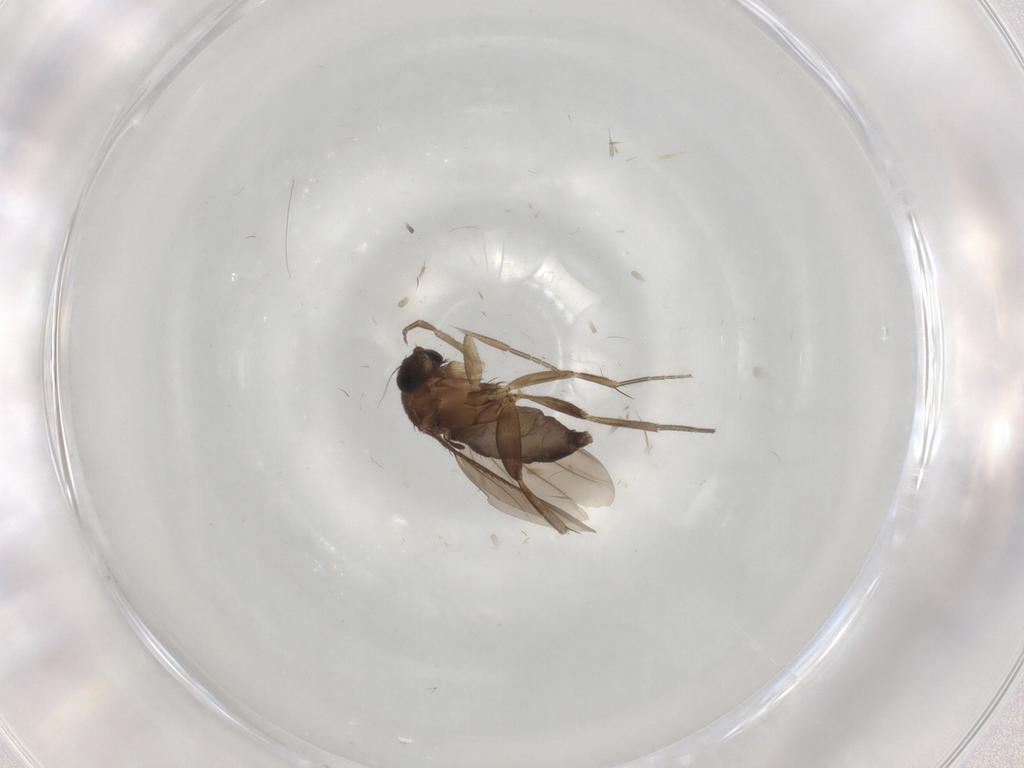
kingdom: Animalia
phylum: Arthropoda
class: Insecta
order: Diptera
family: Phoridae
